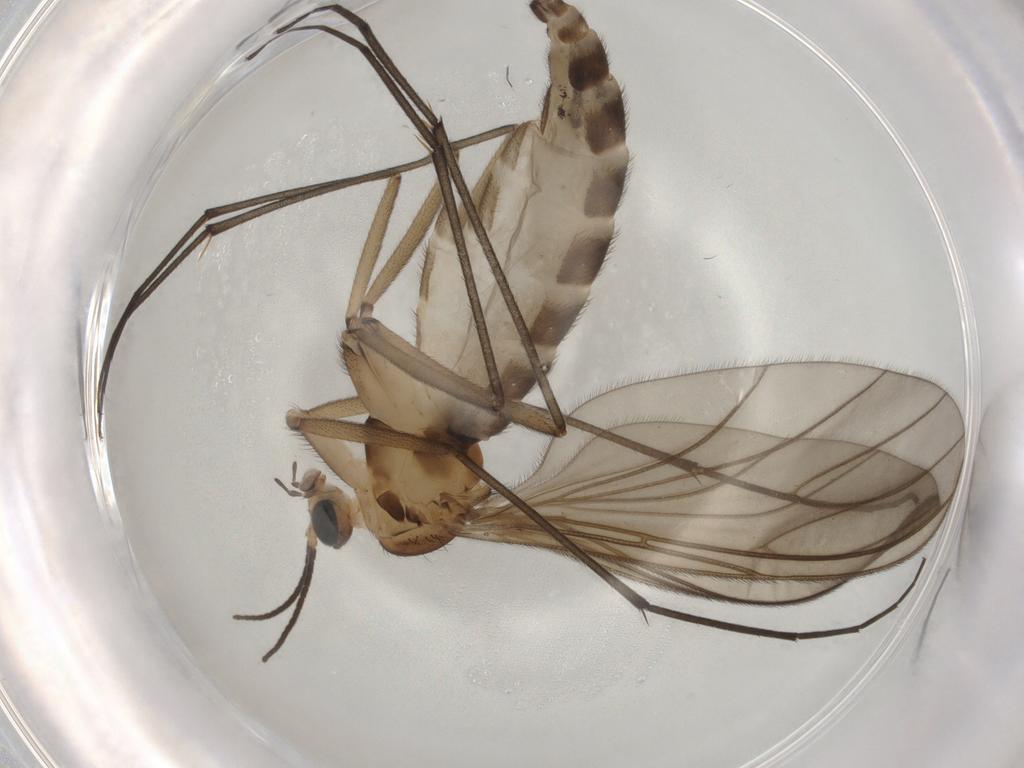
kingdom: Animalia
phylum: Arthropoda
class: Insecta
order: Diptera
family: Sciaridae
